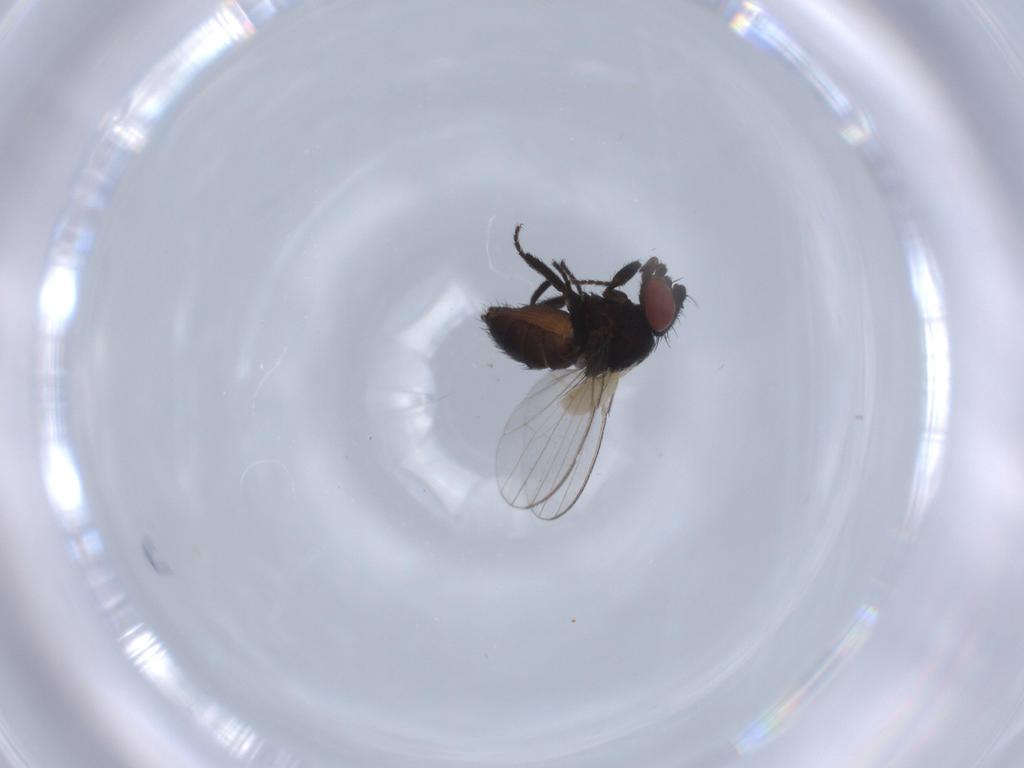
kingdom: Animalia
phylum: Arthropoda
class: Insecta
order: Diptera
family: Milichiidae
